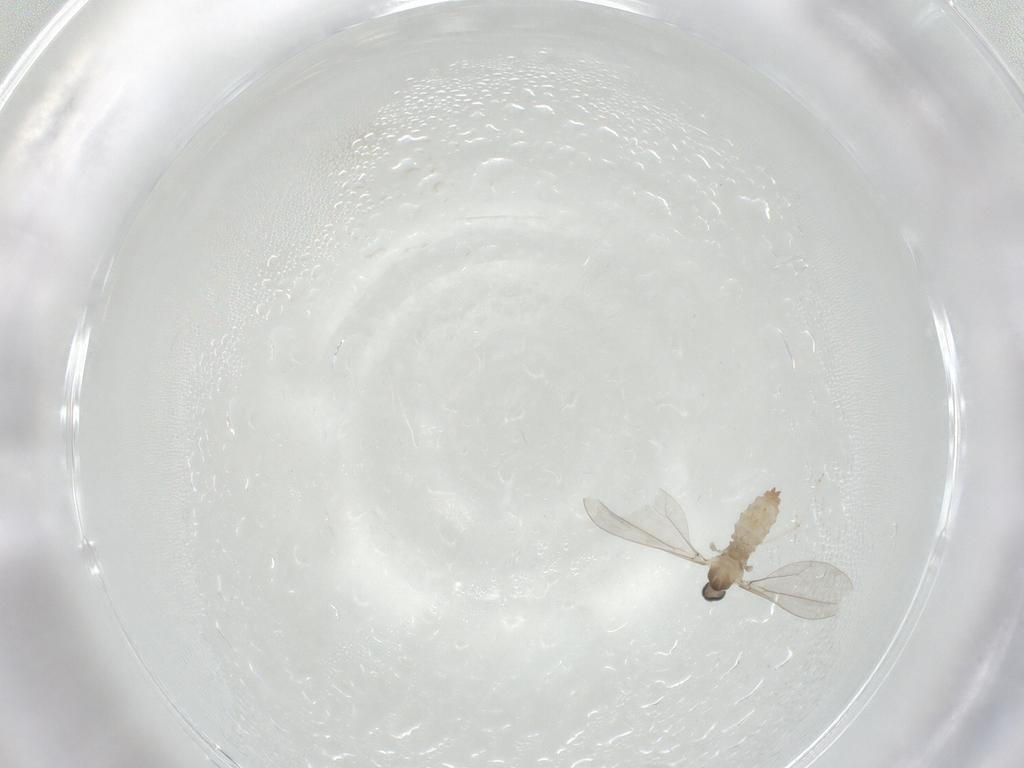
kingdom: Animalia
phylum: Arthropoda
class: Insecta
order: Diptera
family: Cecidomyiidae
